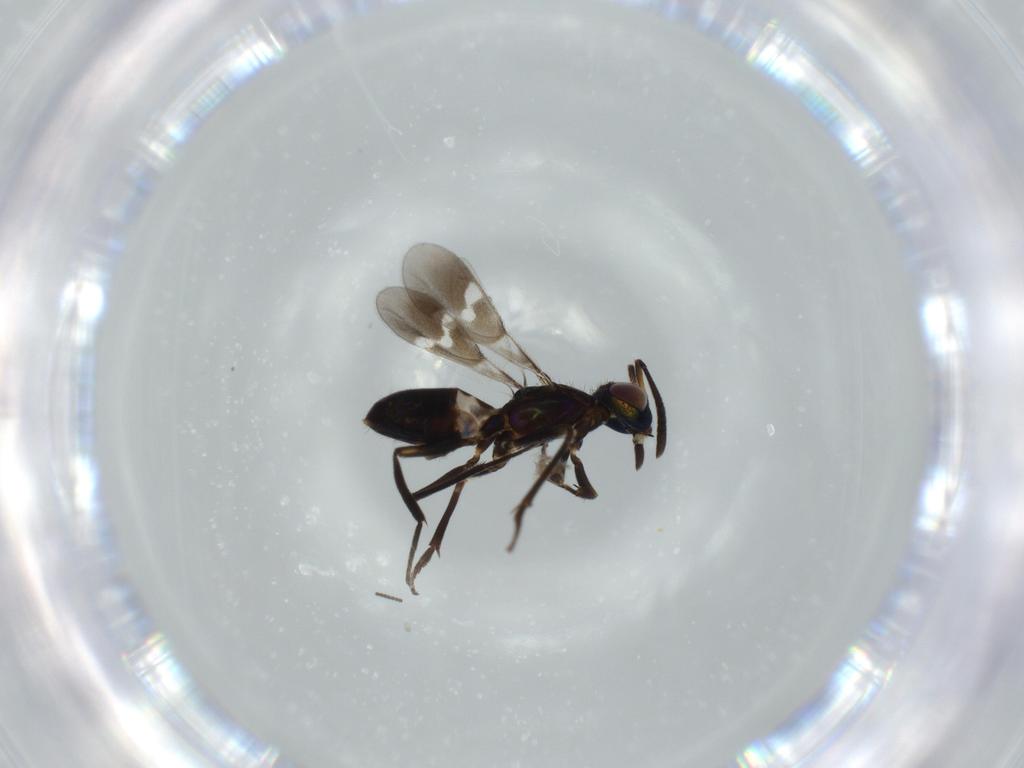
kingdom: Animalia
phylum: Arthropoda
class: Insecta
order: Hymenoptera
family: Eupelmidae
